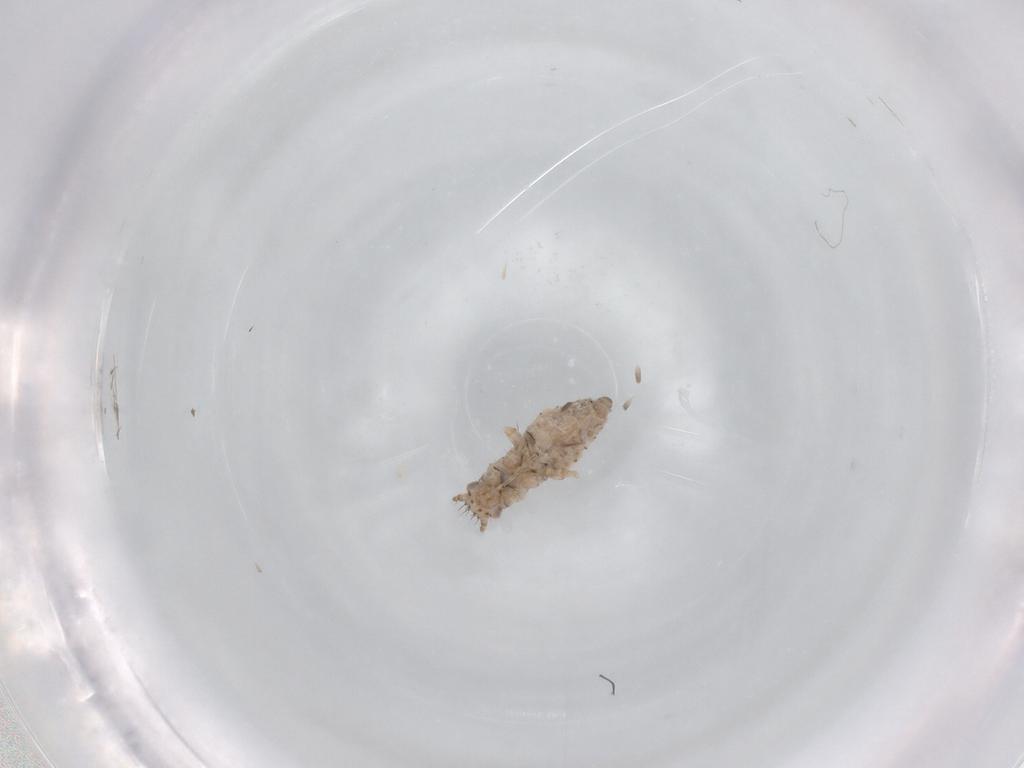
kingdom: Animalia
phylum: Arthropoda
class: Insecta
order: Hemiptera
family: Aphididae
